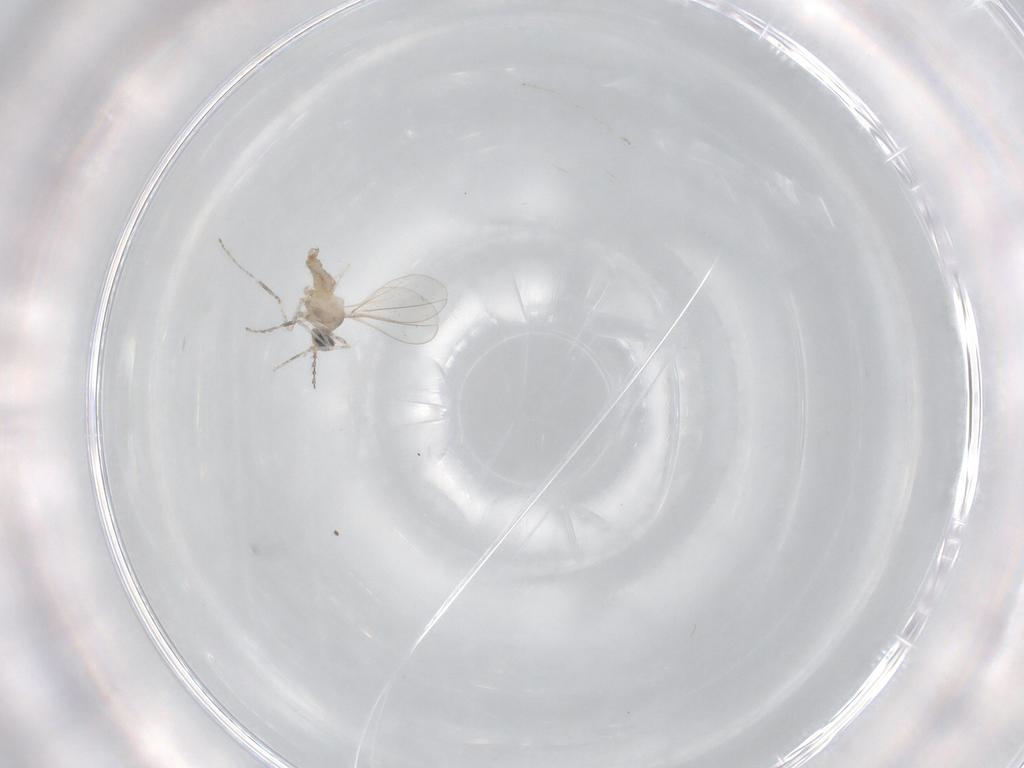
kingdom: Animalia
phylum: Arthropoda
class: Insecta
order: Diptera
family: Cecidomyiidae
